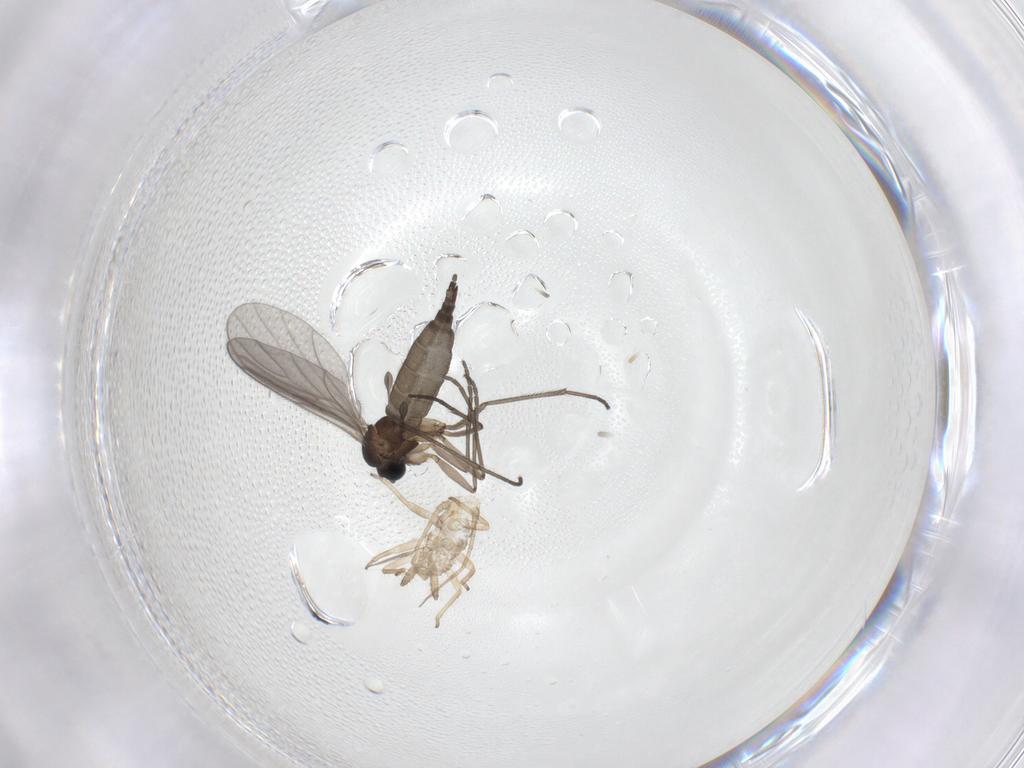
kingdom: Animalia
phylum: Arthropoda
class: Insecta
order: Diptera
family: Sciaridae
